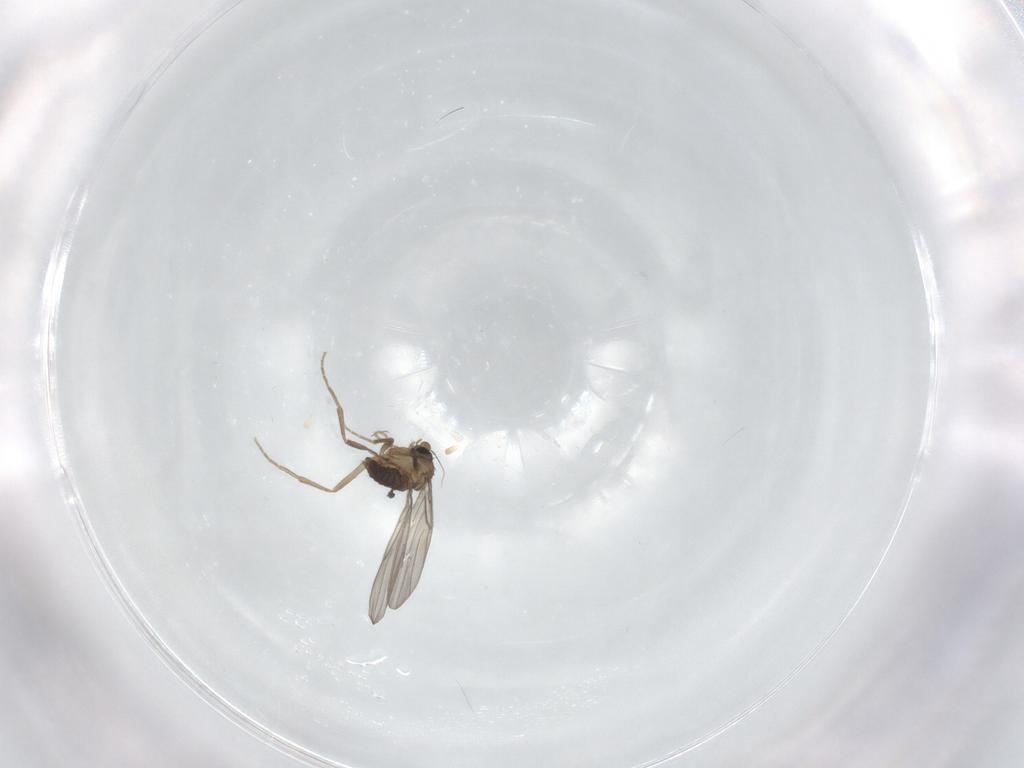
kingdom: Animalia
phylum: Arthropoda
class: Insecta
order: Diptera
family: Phoridae
